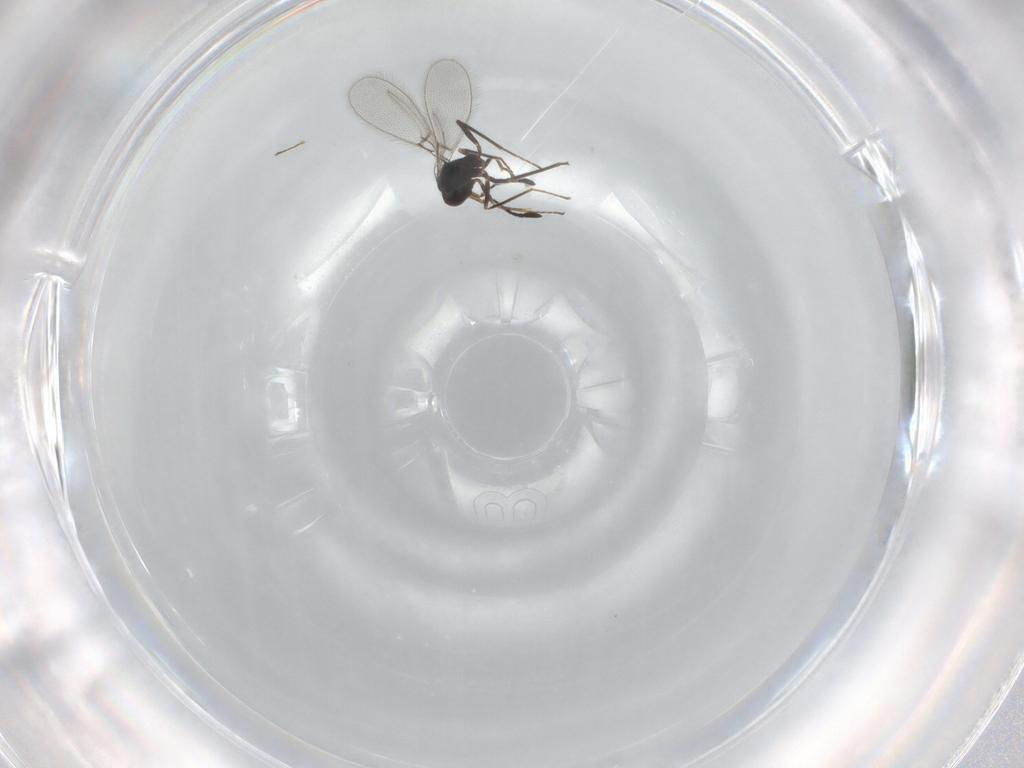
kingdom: Animalia
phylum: Arthropoda
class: Insecta
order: Hymenoptera
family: Mymaridae
